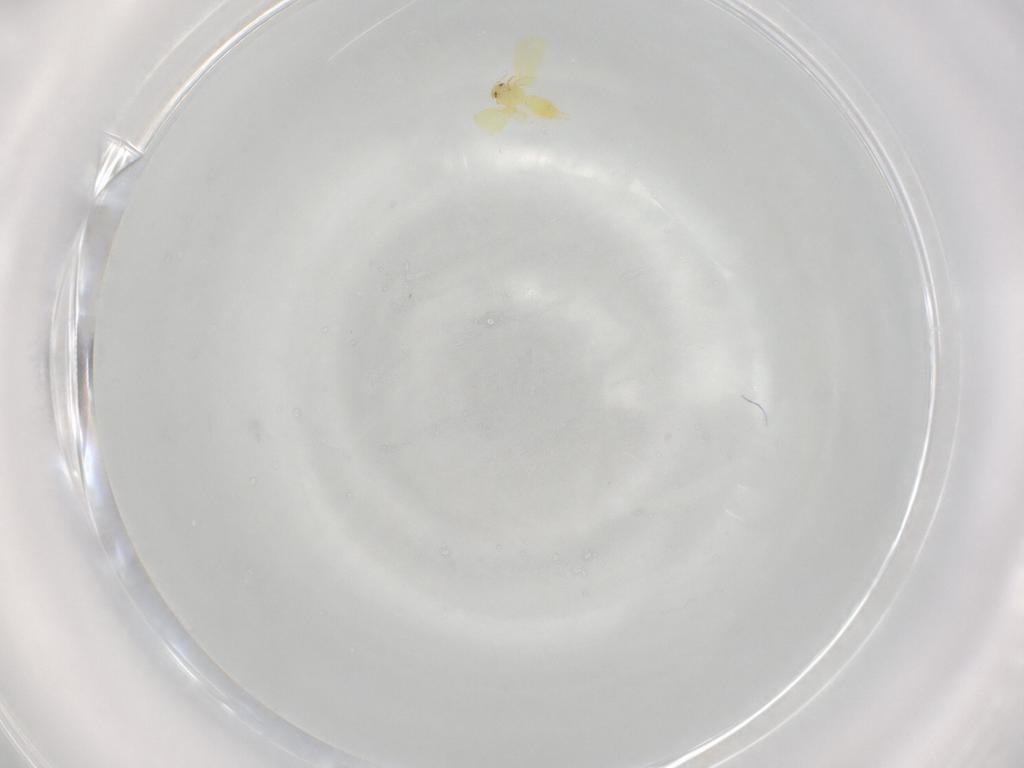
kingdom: Animalia
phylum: Arthropoda
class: Insecta
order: Hemiptera
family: Aleyrodidae
